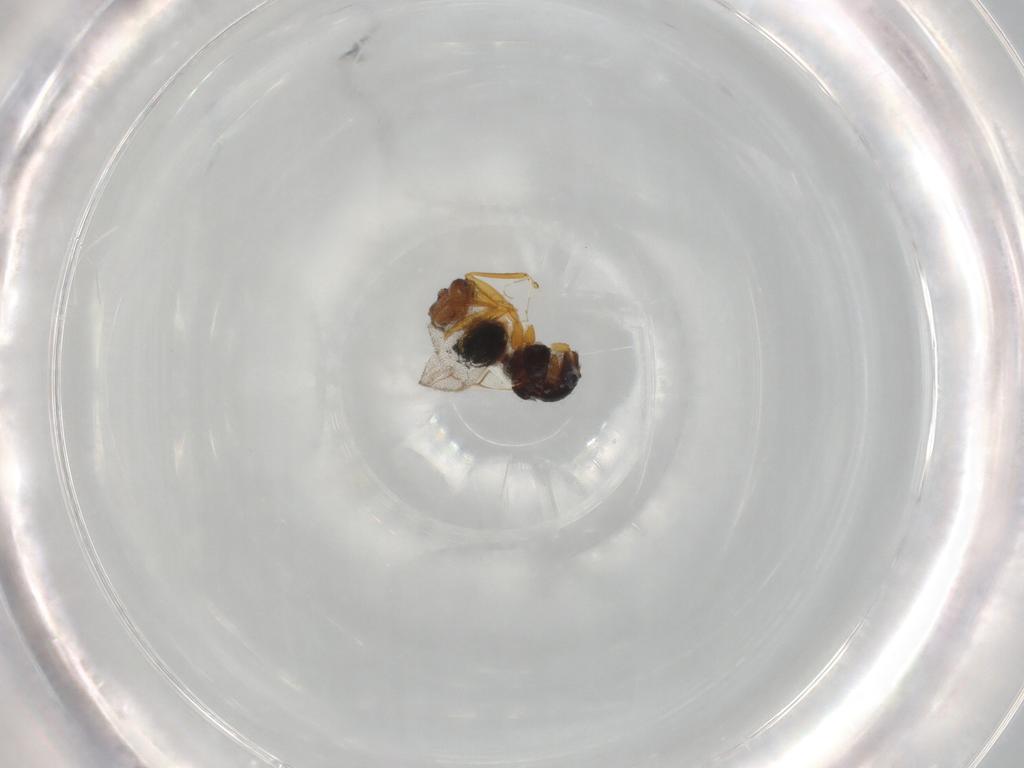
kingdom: Animalia
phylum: Arthropoda
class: Insecta
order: Hymenoptera
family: Figitidae
